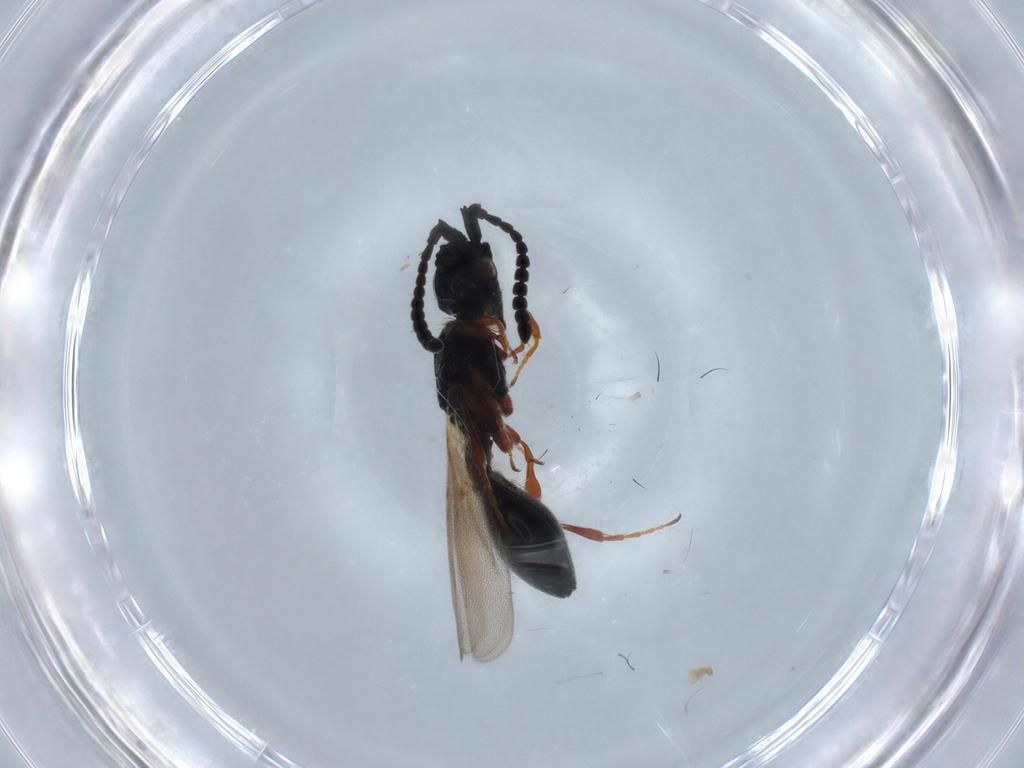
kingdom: Animalia
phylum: Arthropoda
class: Insecta
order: Hymenoptera
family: Diapriidae
